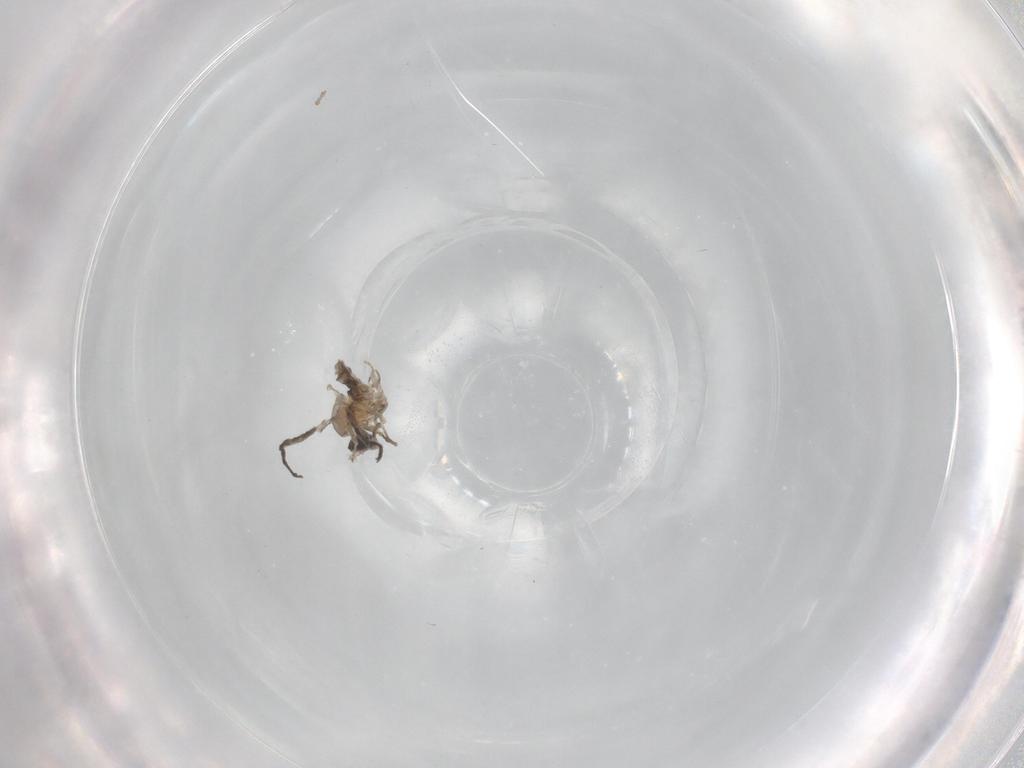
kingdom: Animalia
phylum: Arthropoda
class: Insecta
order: Diptera
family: Cecidomyiidae
